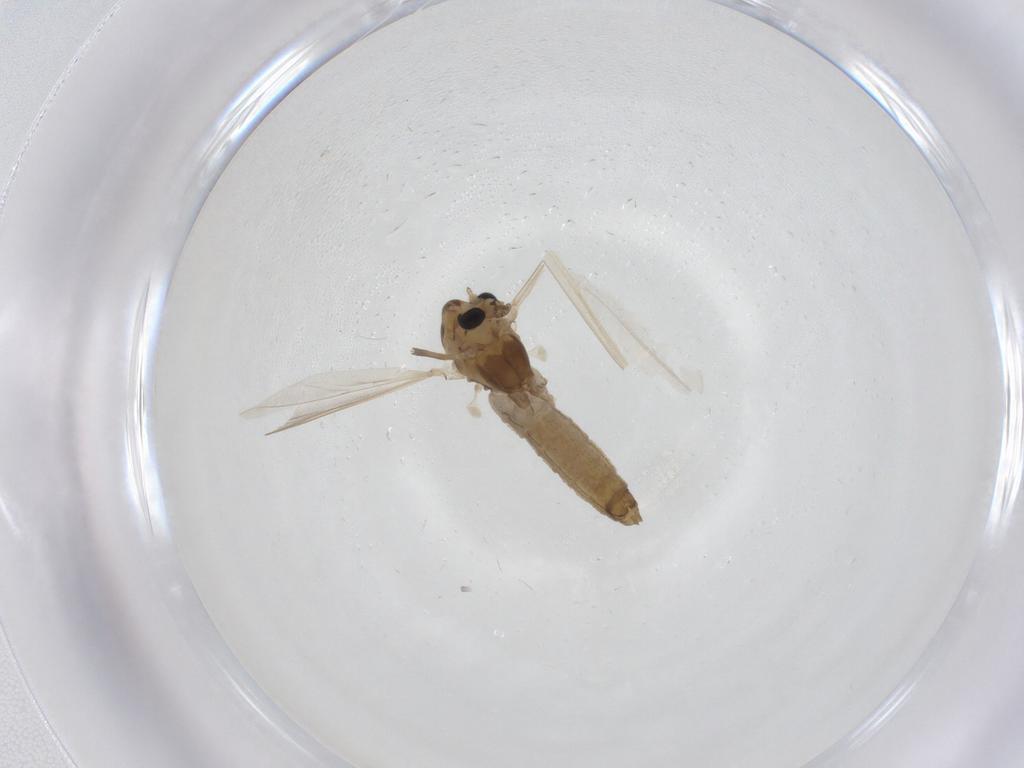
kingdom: Animalia
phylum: Arthropoda
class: Insecta
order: Diptera
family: Chironomidae
